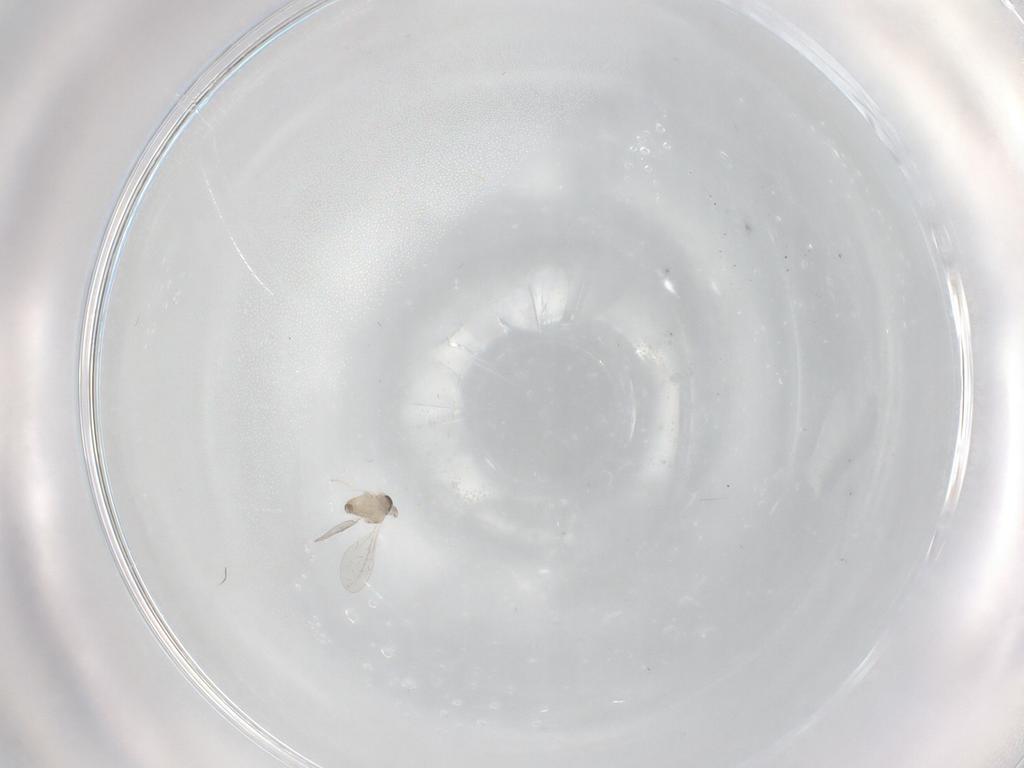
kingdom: Animalia
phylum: Arthropoda
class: Insecta
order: Diptera
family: Cecidomyiidae
